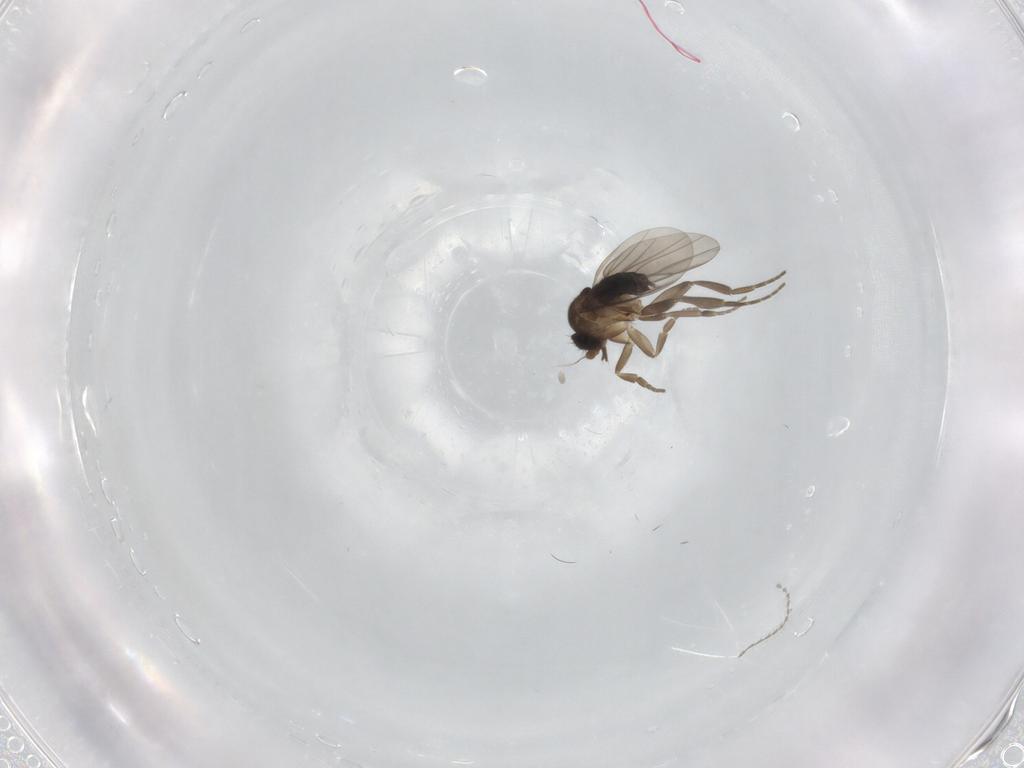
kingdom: Animalia
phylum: Arthropoda
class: Insecta
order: Diptera
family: Cecidomyiidae
